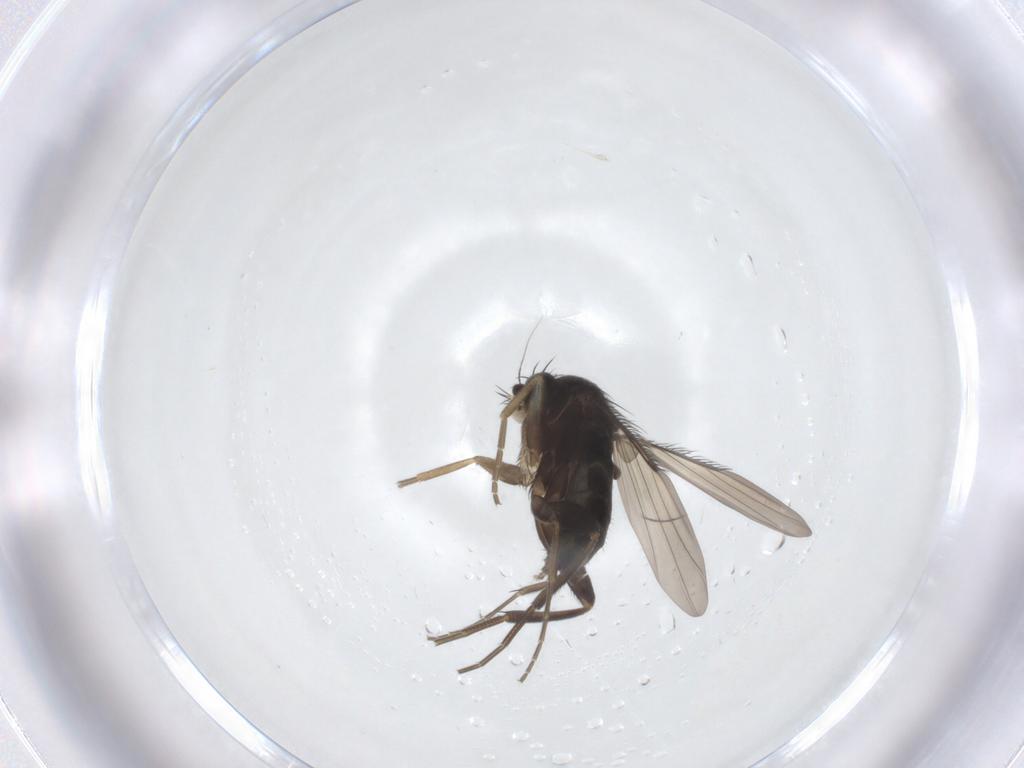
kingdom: Animalia
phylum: Arthropoda
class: Insecta
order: Diptera
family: Phoridae
